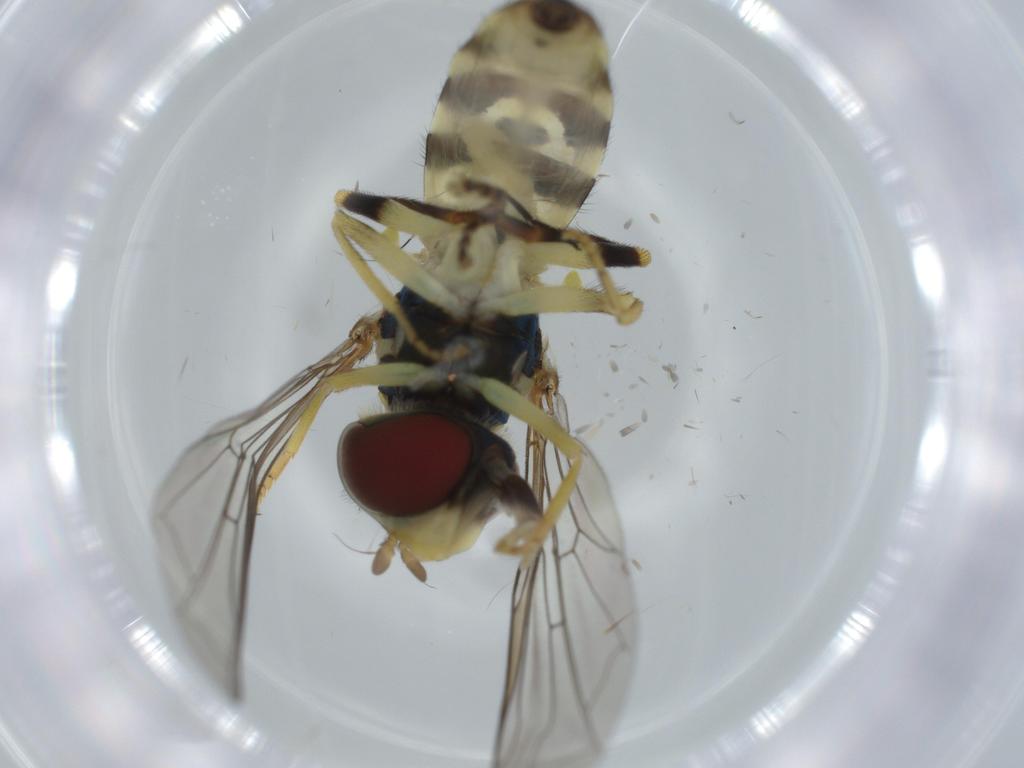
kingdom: Animalia
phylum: Arthropoda
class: Insecta
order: Diptera
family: Syrphidae
